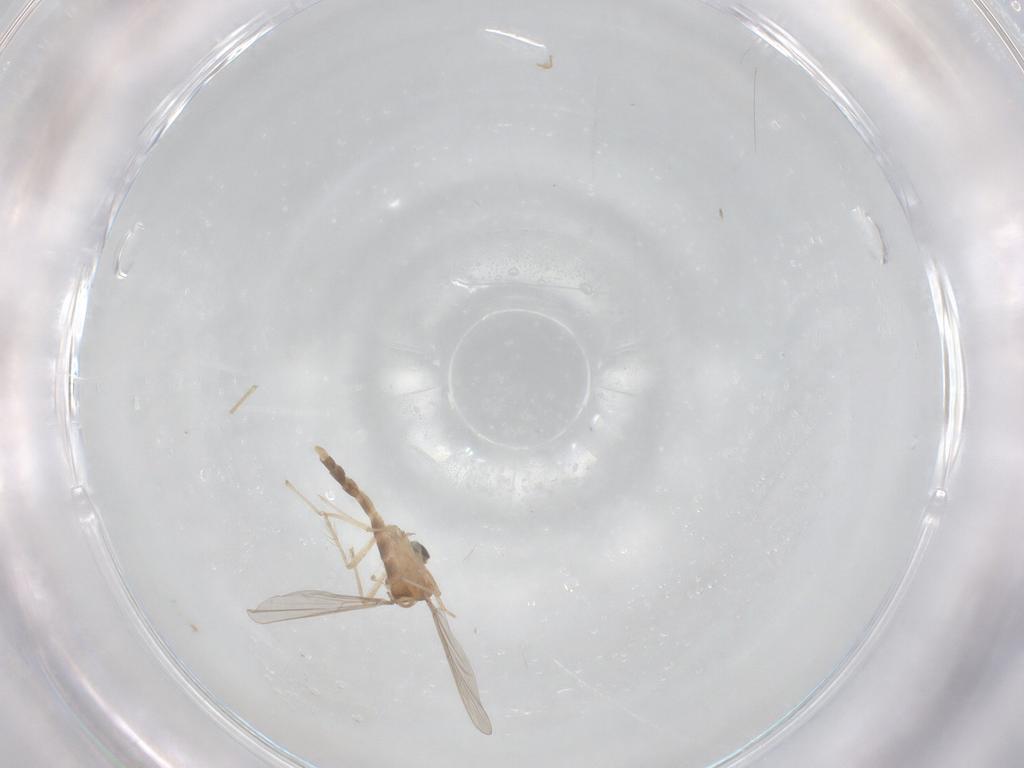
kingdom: Animalia
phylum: Arthropoda
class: Insecta
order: Diptera
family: Chironomidae
